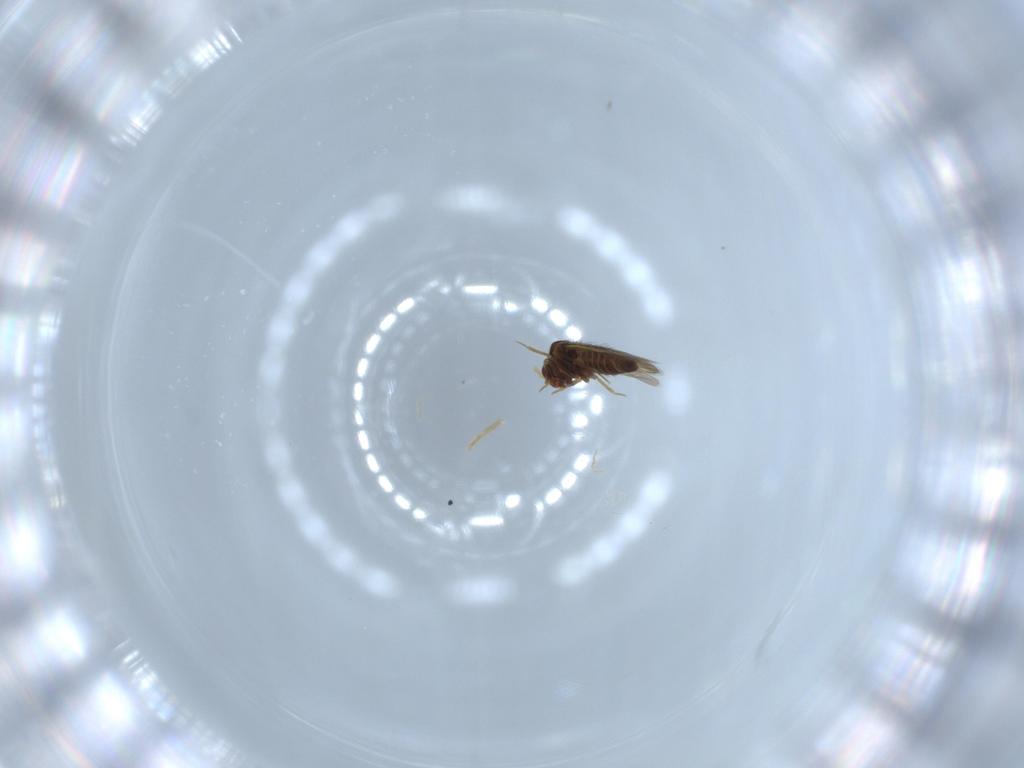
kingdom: Animalia
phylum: Arthropoda
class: Insecta
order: Hemiptera
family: Schizopteridae
